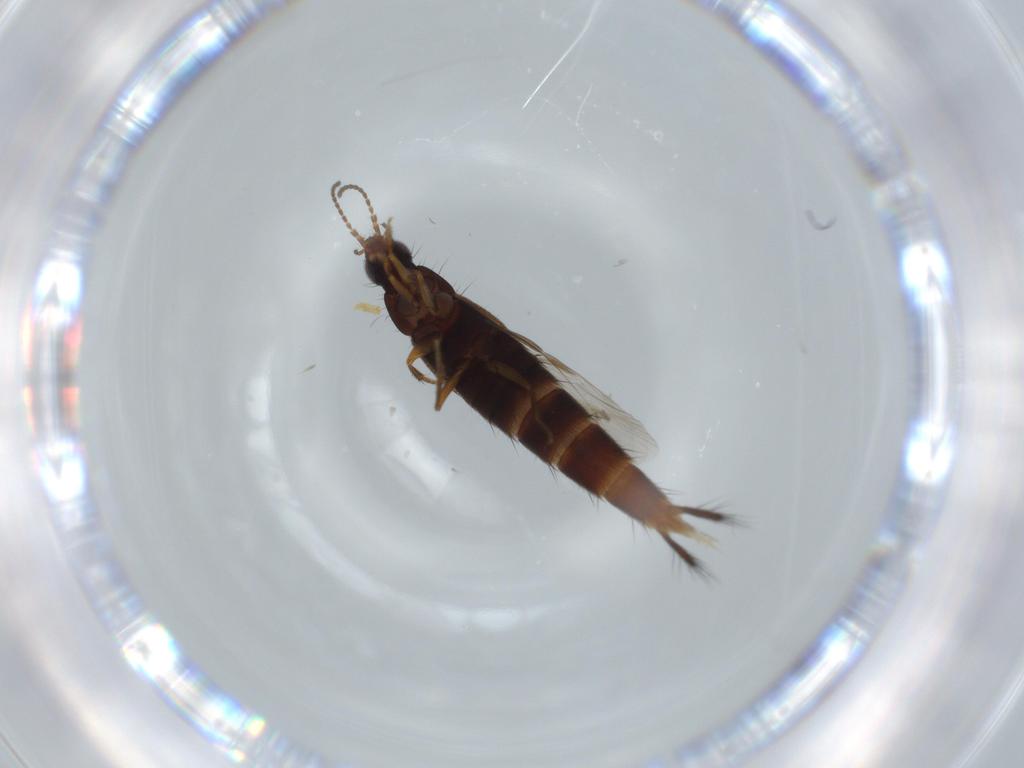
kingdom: Animalia
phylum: Arthropoda
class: Insecta
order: Coleoptera
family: Staphylinidae
